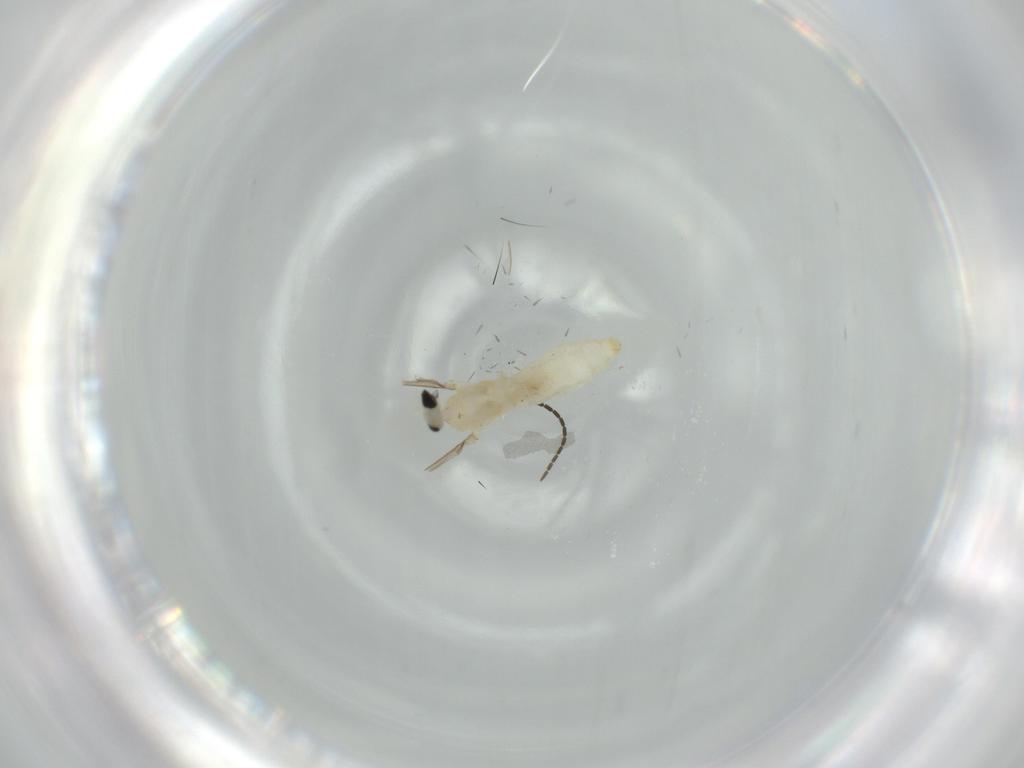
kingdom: Animalia
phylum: Arthropoda
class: Insecta
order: Diptera
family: Cecidomyiidae
